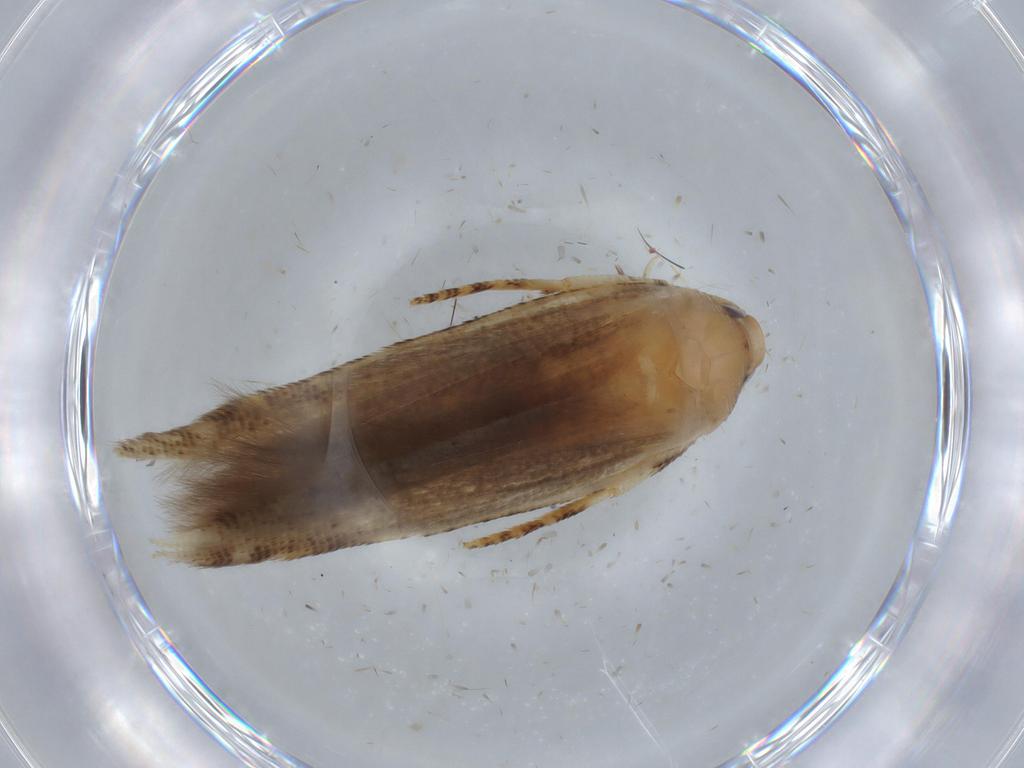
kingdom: Animalia
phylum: Arthropoda
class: Insecta
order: Lepidoptera
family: Cosmopterigidae
